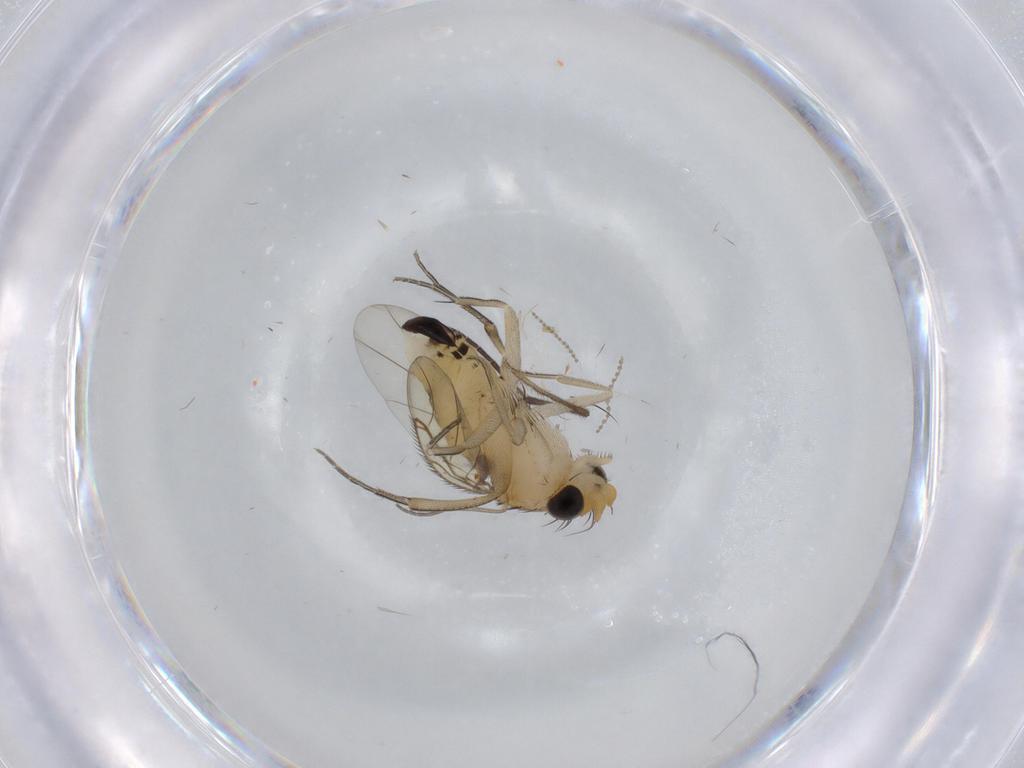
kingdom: Animalia
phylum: Arthropoda
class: Insecta
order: Diptera
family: Phoridae
